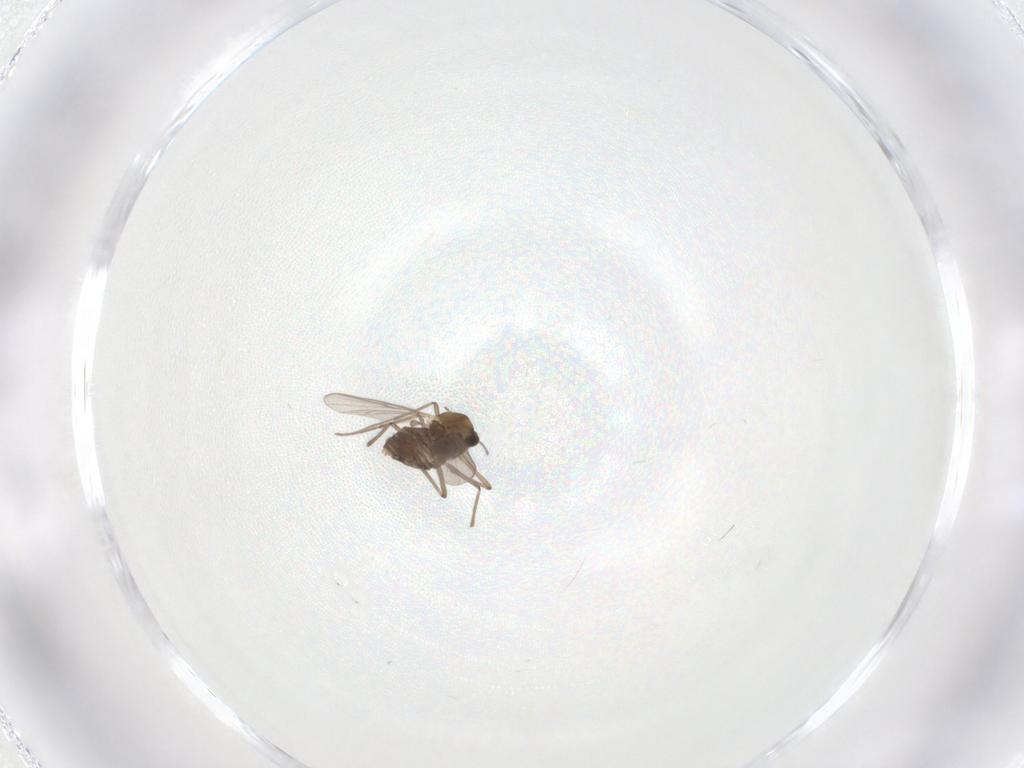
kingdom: Animalia
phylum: Arthropoda
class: Insecta
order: Diptera
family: Chironomidae
